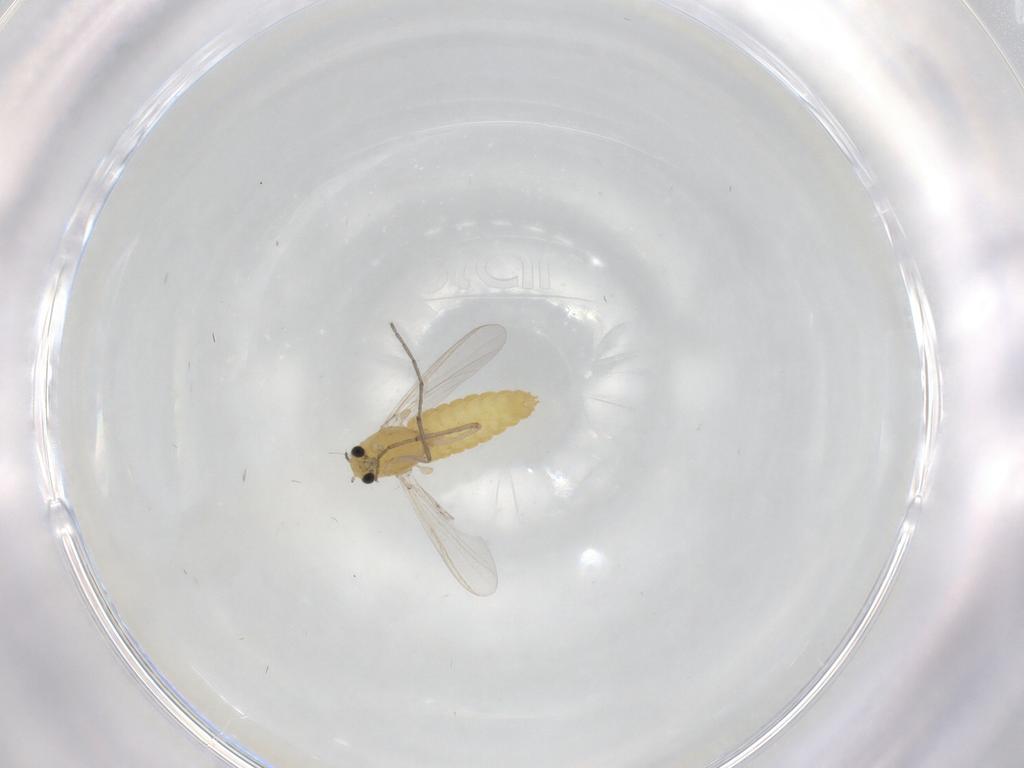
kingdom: Animalia
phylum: Arthropoda
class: Insecta
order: Diptera
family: Chironomidae
